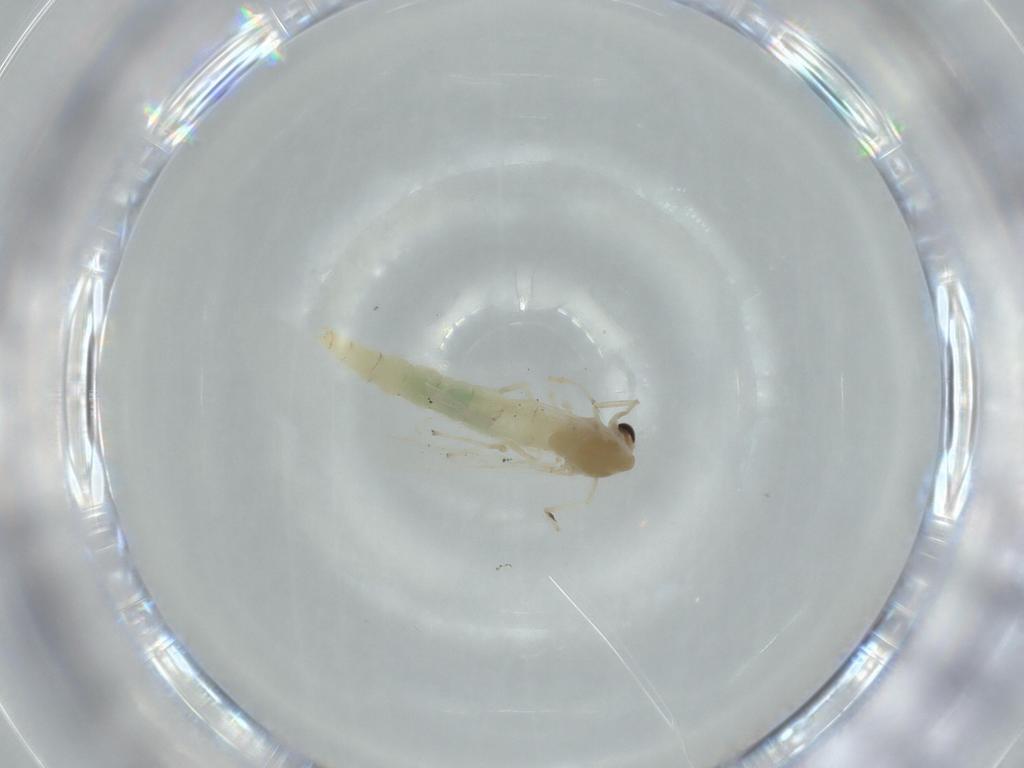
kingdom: Animalia
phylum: Arthropoda
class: Insecta
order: Diptera
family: Chironomidae
